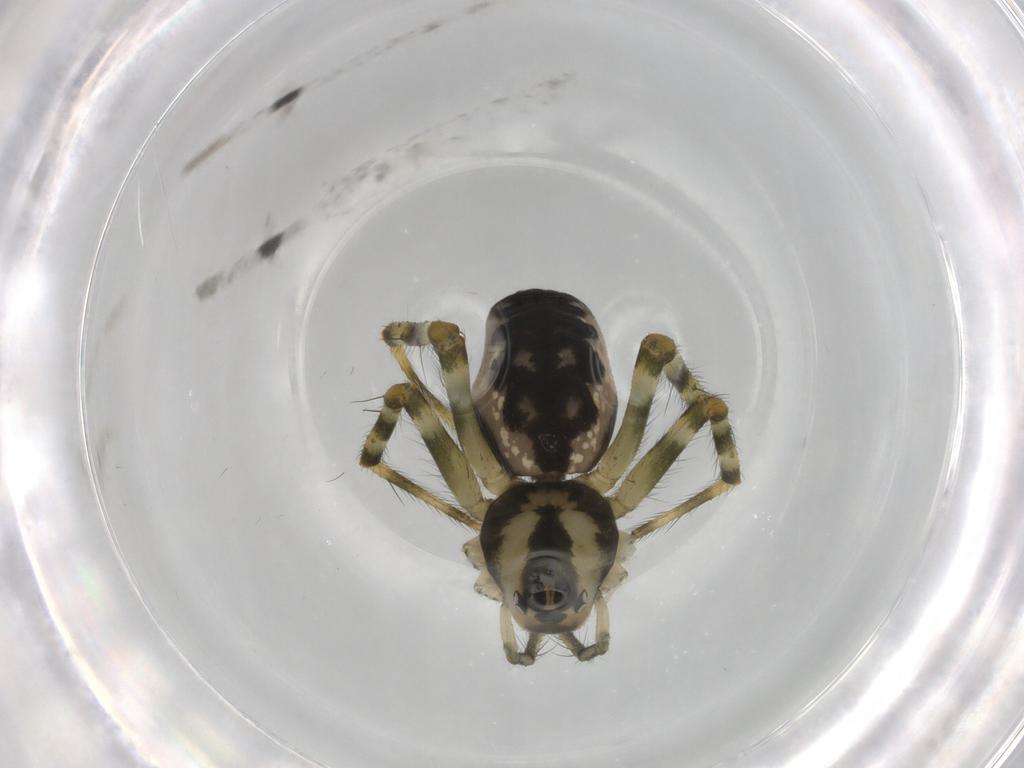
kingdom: Animalia
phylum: Arthropoda
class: Arachnida
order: Araneae
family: Linyphiidae
